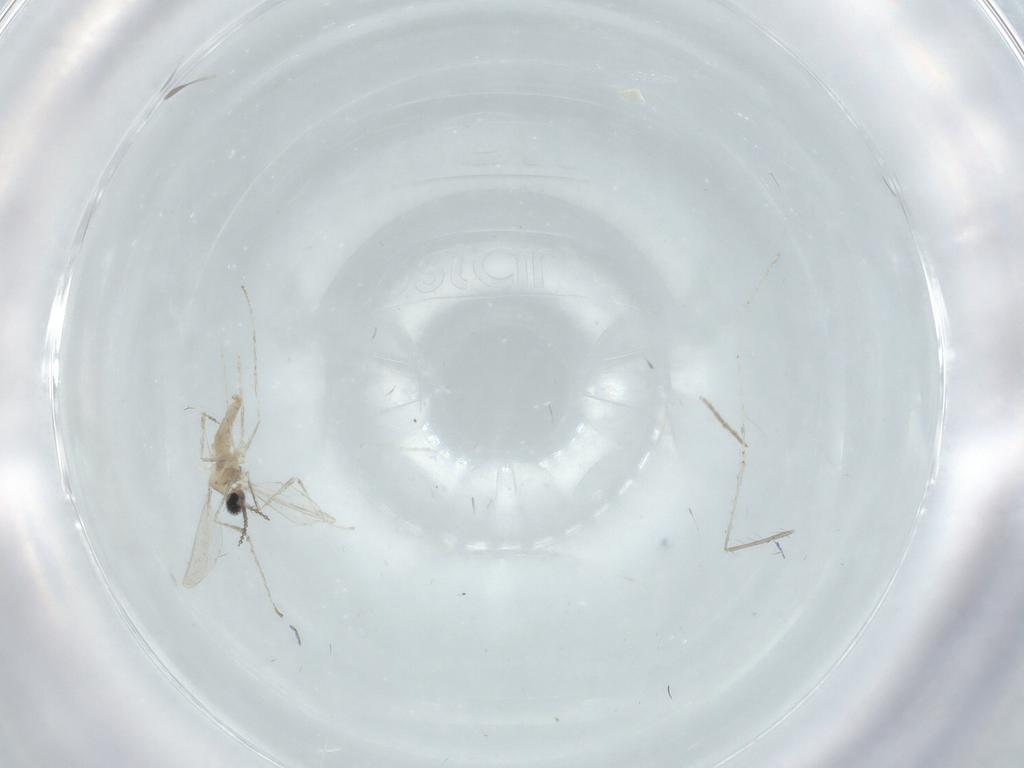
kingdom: Animalia
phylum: Arthropoda
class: Insecta
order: Diptera
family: Cecidomyiidae
